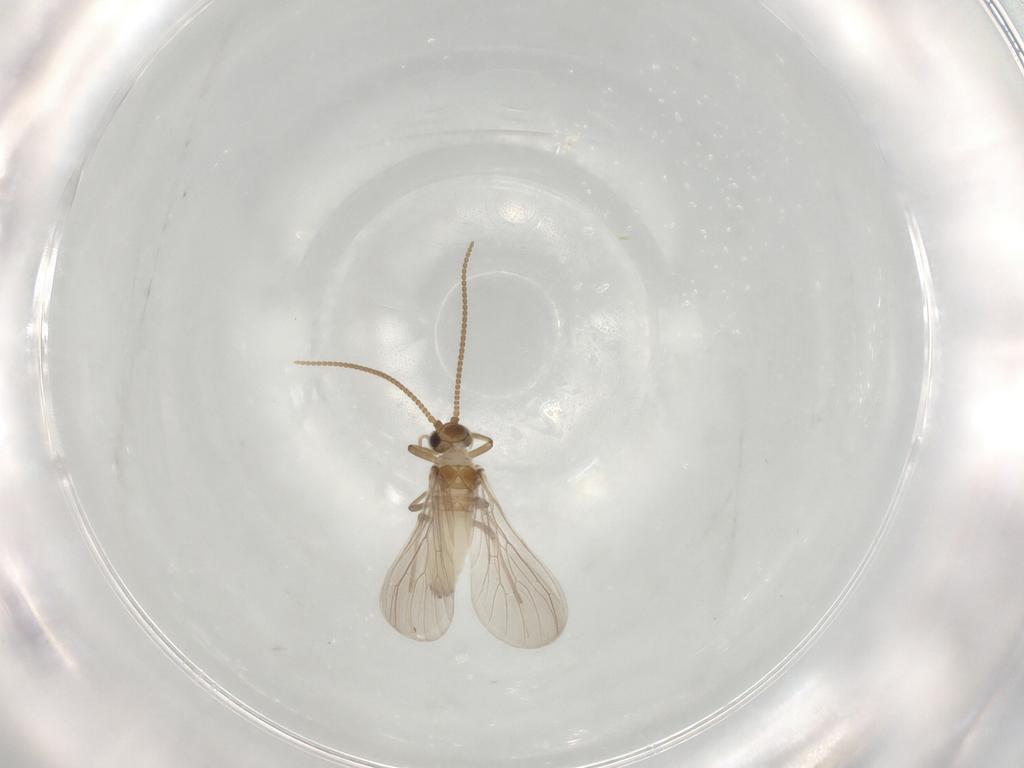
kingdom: Animalia
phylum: Arthropoda
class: Insecta
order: Neuroptera
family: Coniopterygidae
